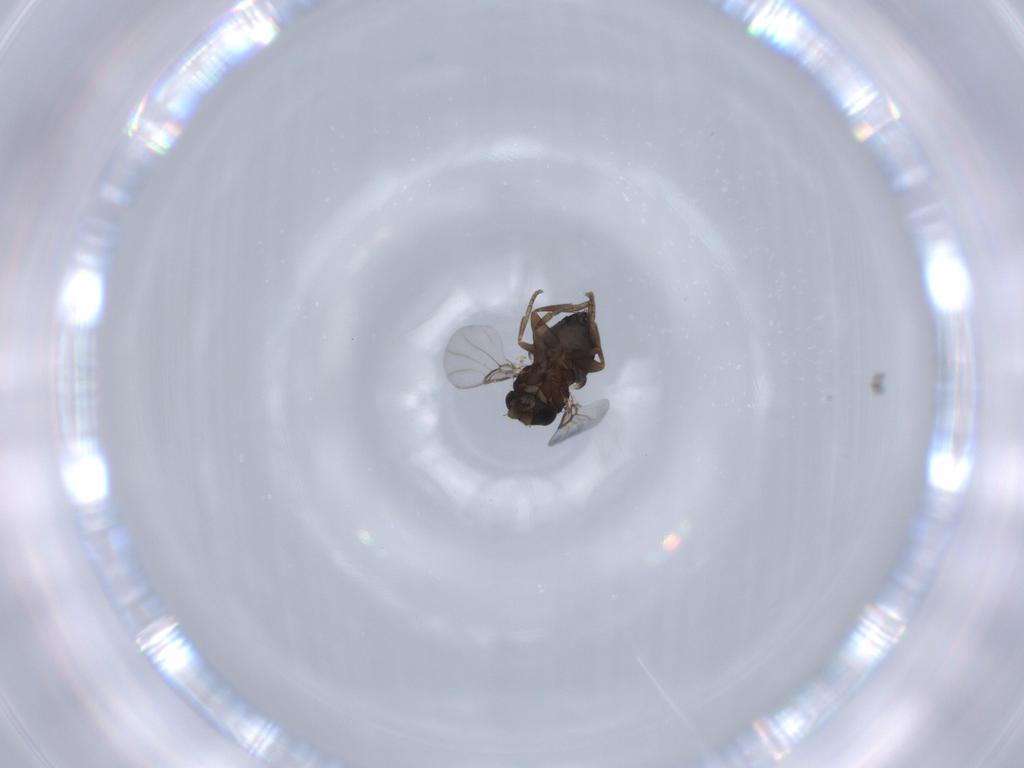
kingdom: Animalia
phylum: Arthropoda
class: Insecta
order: Diptera
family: Phoridae
